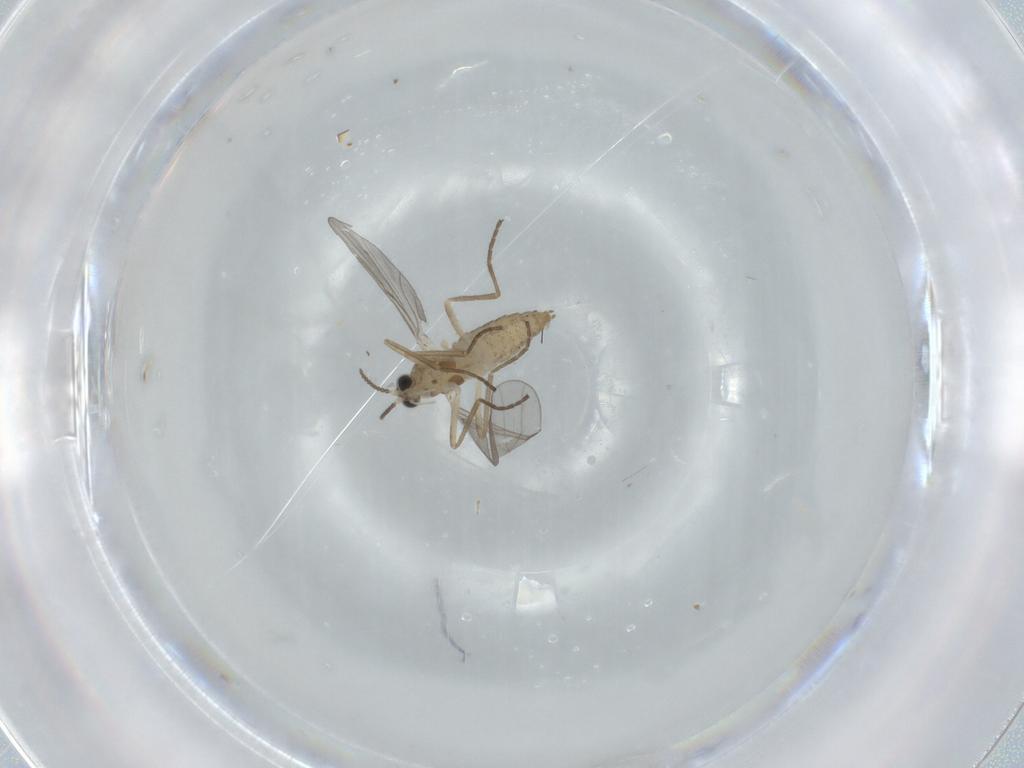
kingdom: Animalia
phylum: Arthropoda
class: Insecta
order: Diptera
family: Cecidomyiidae
